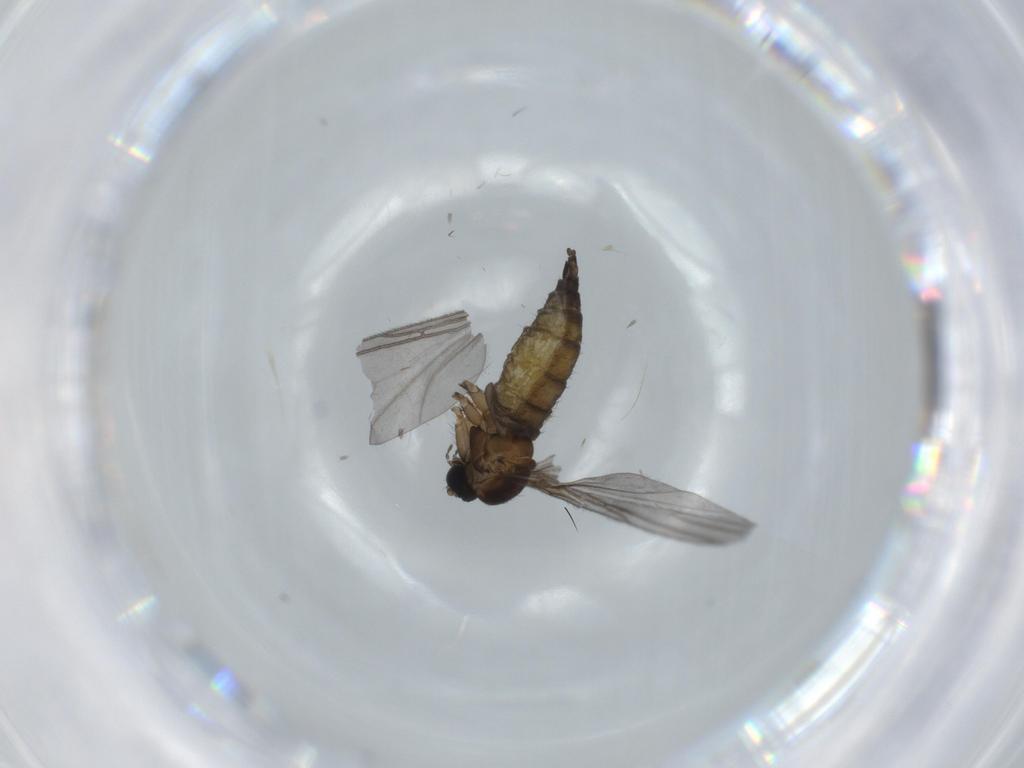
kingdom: Animalia
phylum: Arthropoda
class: Insecta
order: Diptera
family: Sciaridae
